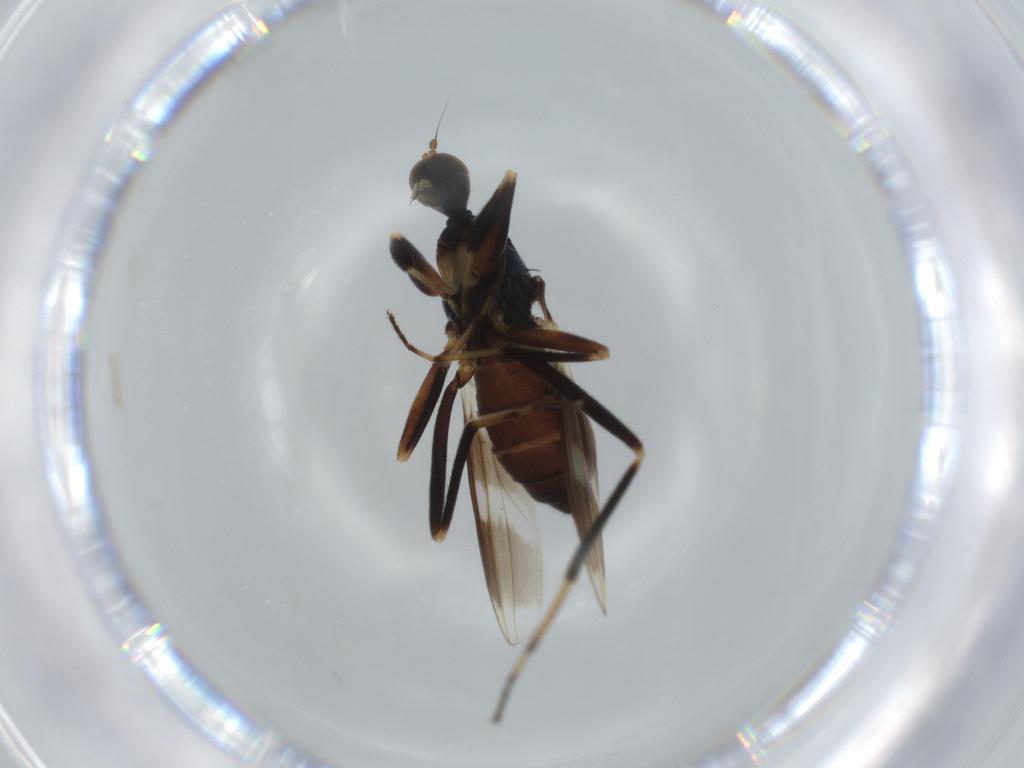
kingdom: Animalia
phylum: Arthropoda
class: Insecta
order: Diptera
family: Hybotidae
